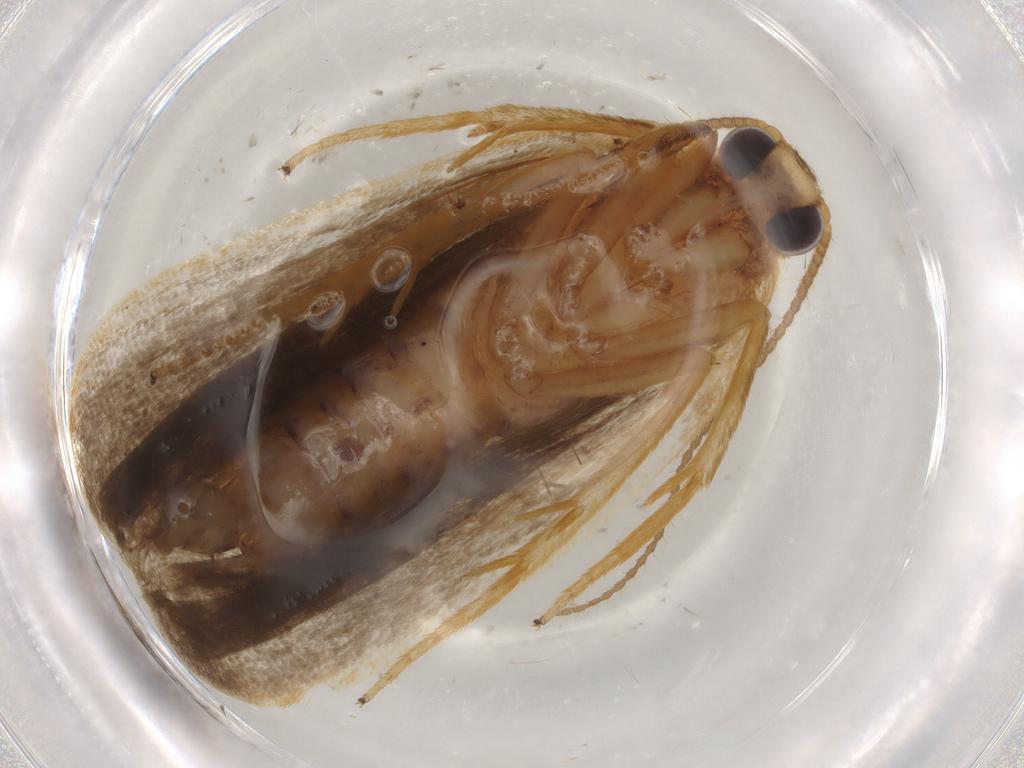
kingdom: Animalia
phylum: Arthropoda
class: Insecta
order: Lepidoptera
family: Erebidae
